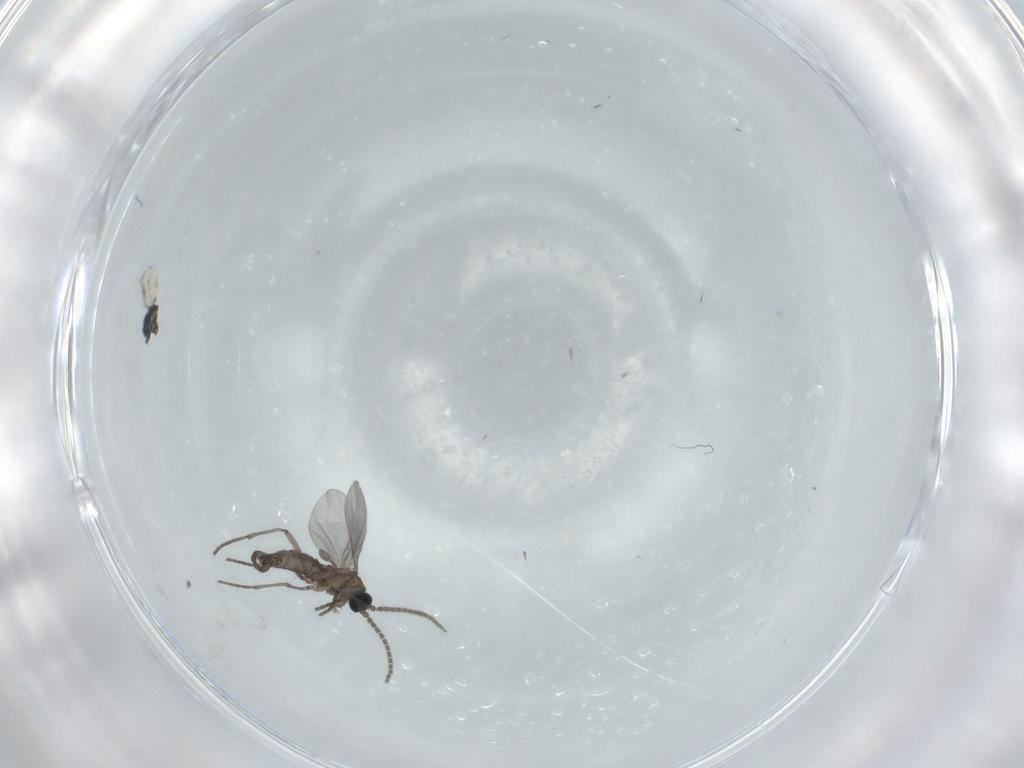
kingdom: Animalia
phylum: Arthropoda
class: Insecta
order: Diptera
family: Sciaridae
